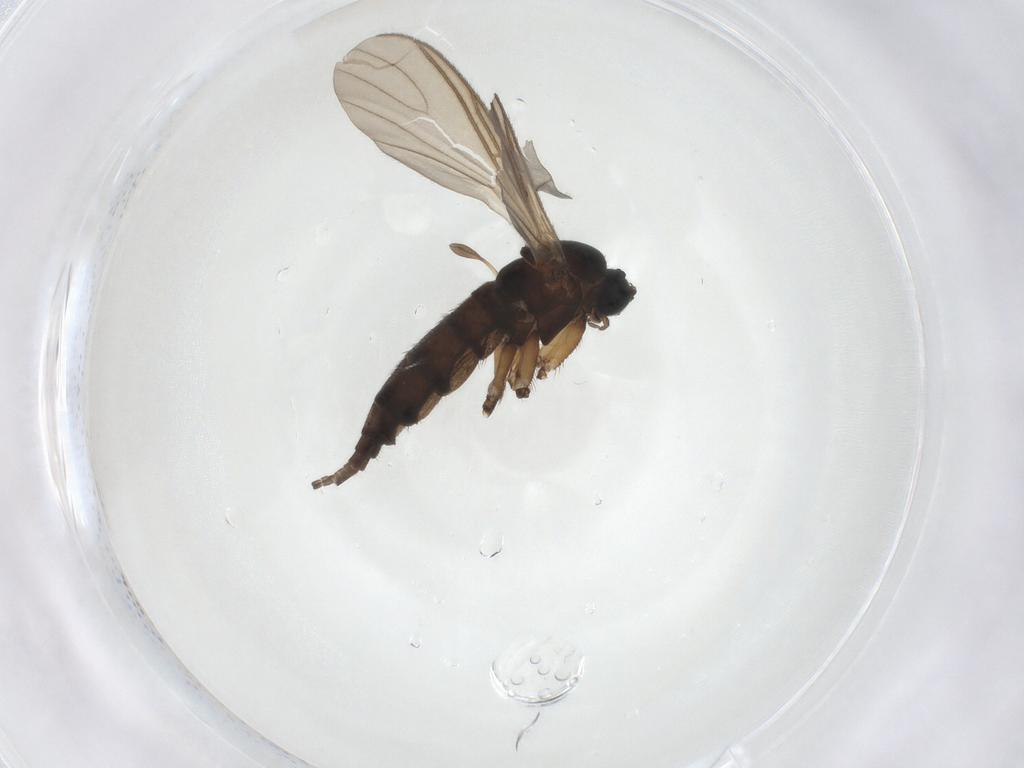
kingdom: Animalia
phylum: Arthropoda
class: Insecta
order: Diptera
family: Sciaridae
